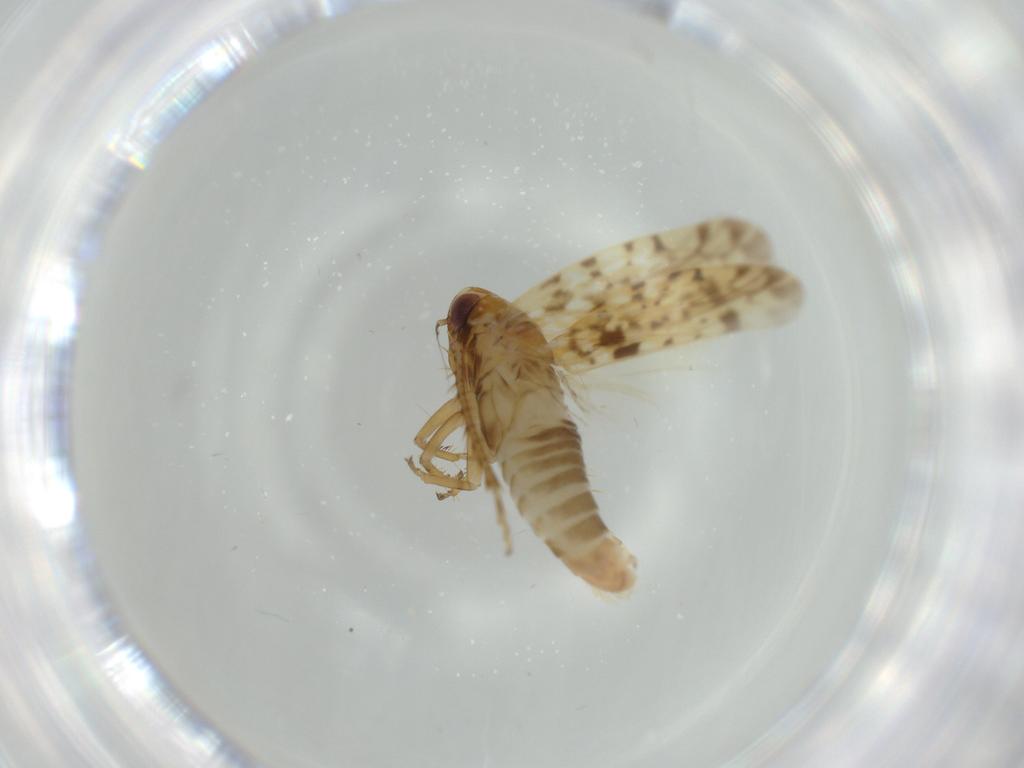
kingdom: Animalia
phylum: Arthropoda
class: Insecta
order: Hemiptera
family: Cicadellidae
